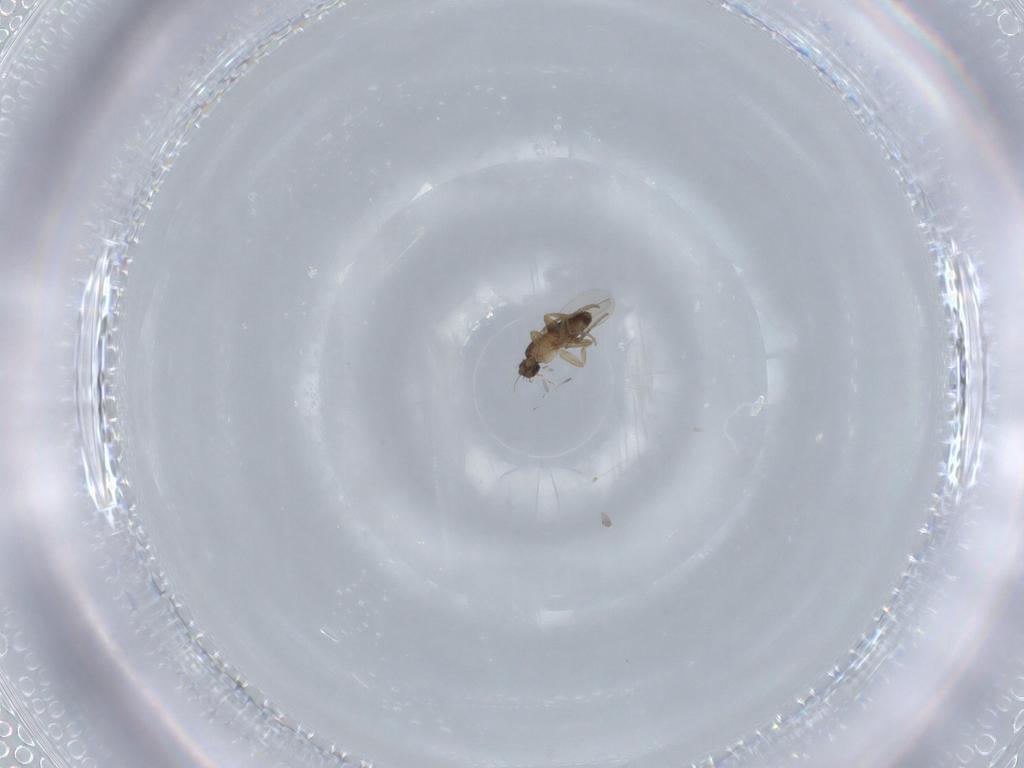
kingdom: Animalia
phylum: Arthropoda
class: Insecta
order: Diptera
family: Phoridae
